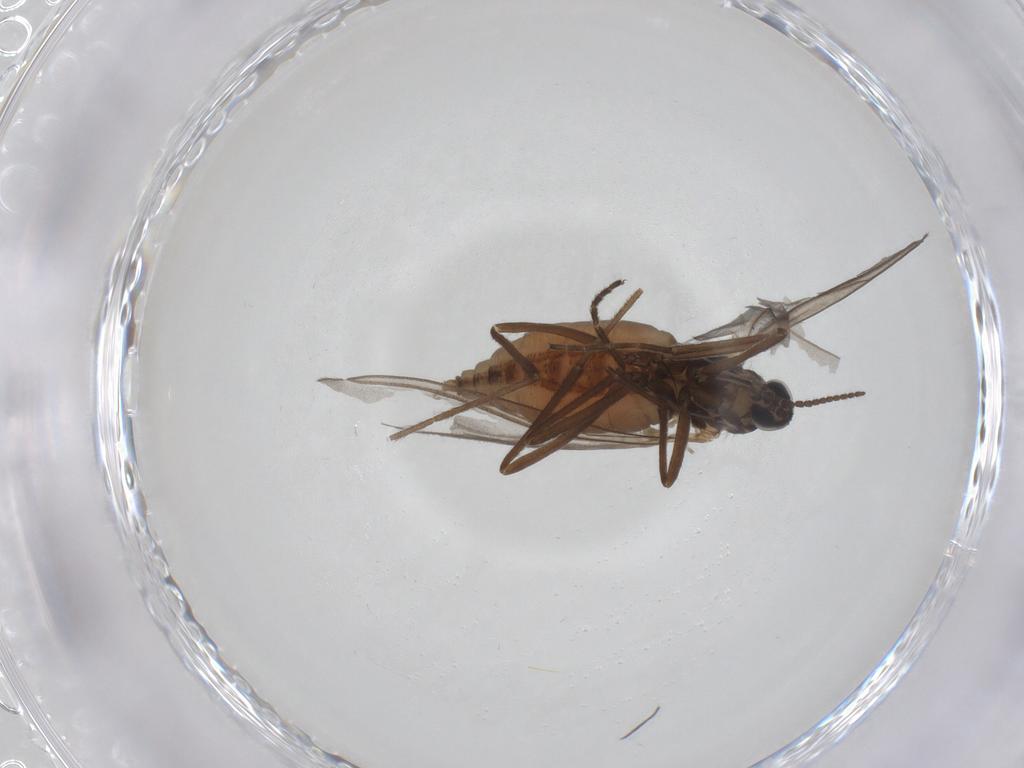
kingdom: Animalia
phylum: Arthropoda
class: Insecta
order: Diptera
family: Cecidomyiidae
